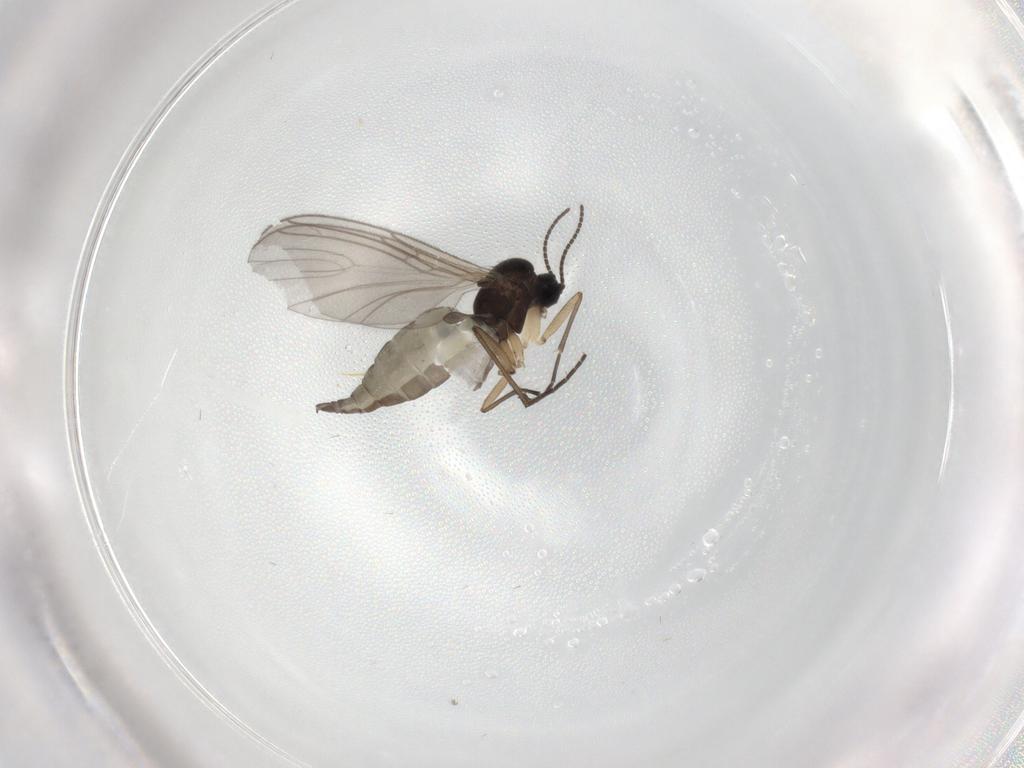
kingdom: Animalia
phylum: Arthropoda
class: Insecta
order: Diptera
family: Sciaridae
